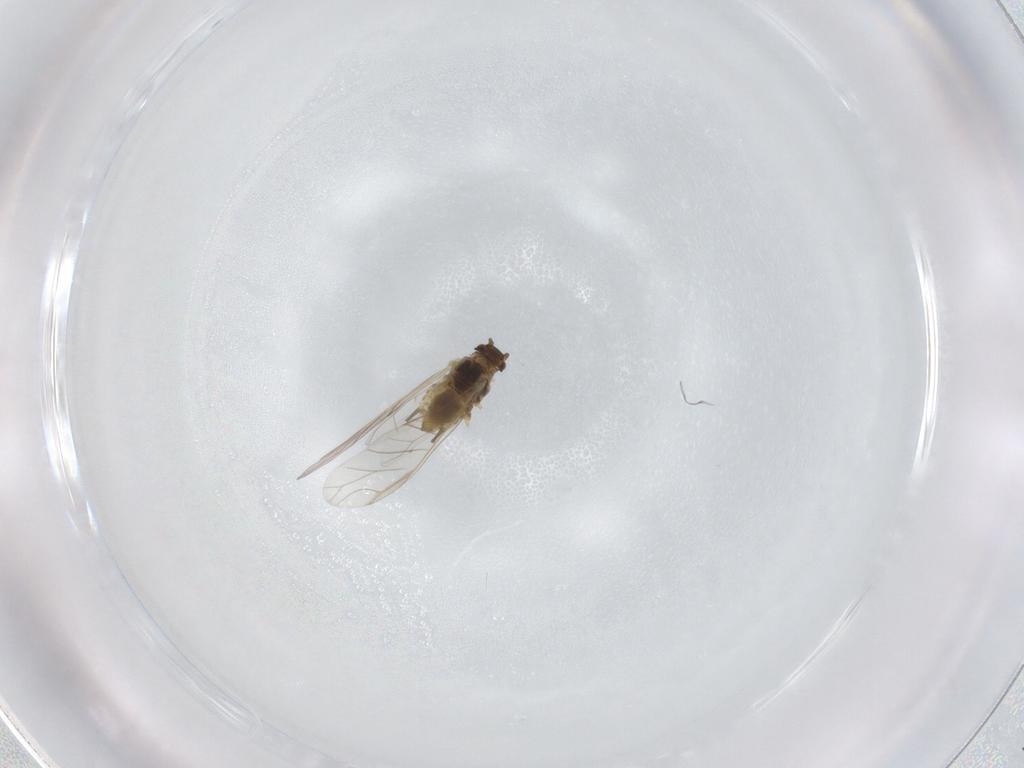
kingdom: Animalia
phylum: Arthropoda
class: Insecta
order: Hemiptera
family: Aphididae
